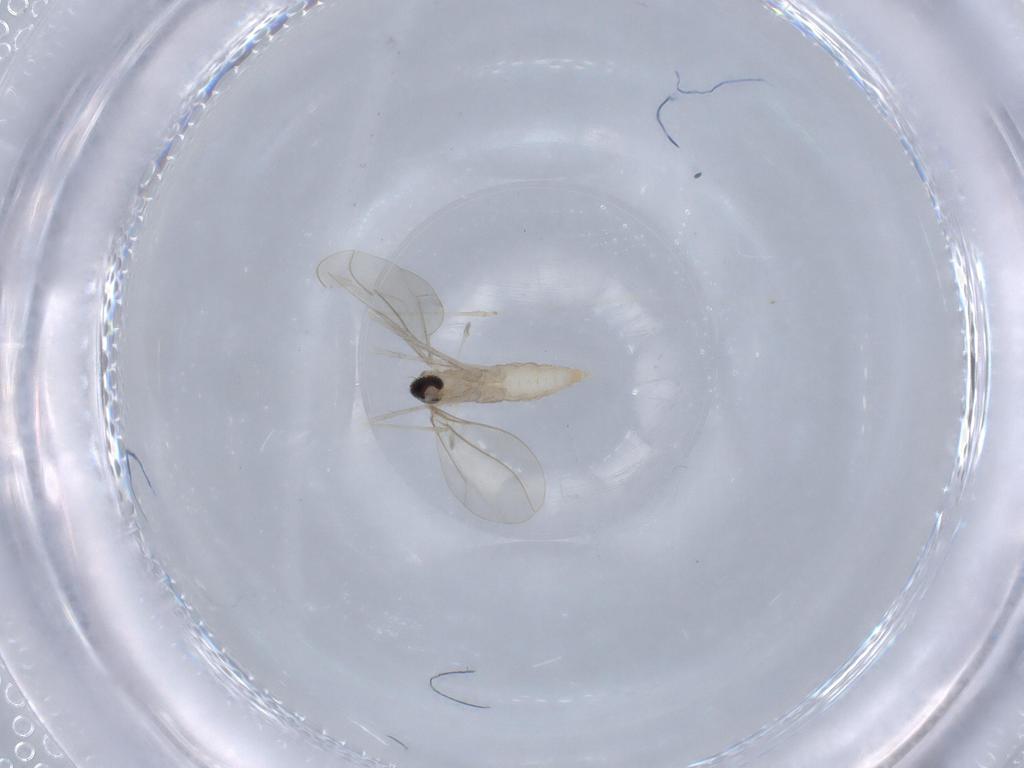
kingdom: Animalia
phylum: Arthropoda
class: Insecta
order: Diptera
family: Cecidomyiidae
